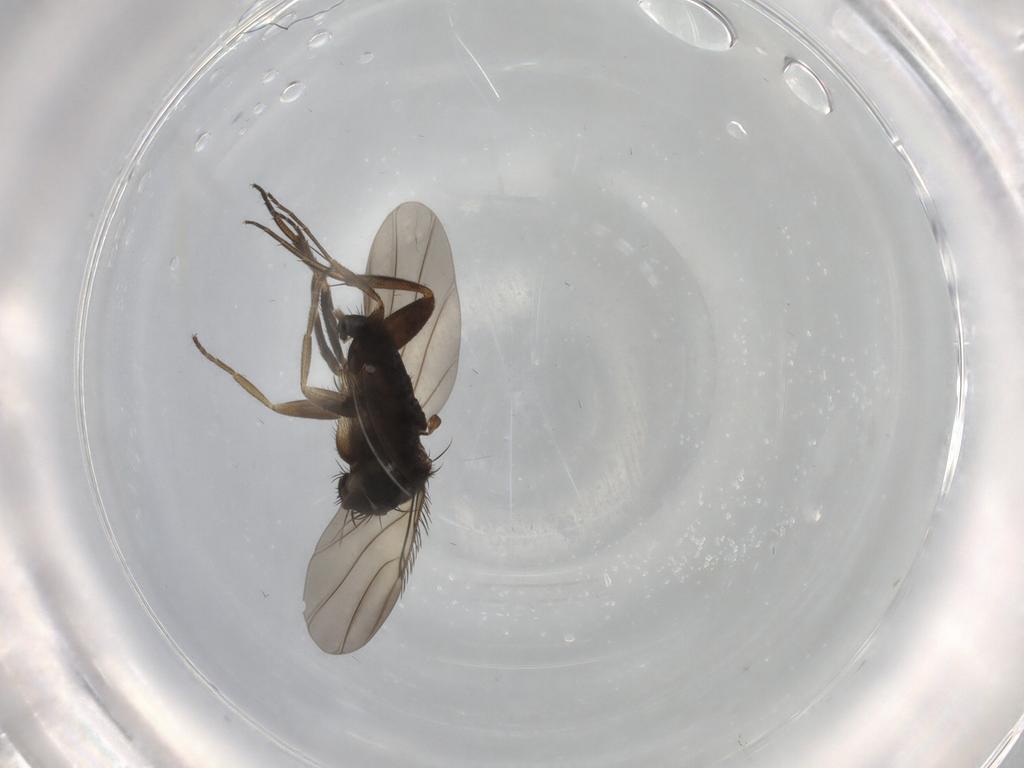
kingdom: Animalia
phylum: Arthropoda
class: Insecta
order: Diptera
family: Phoridae
